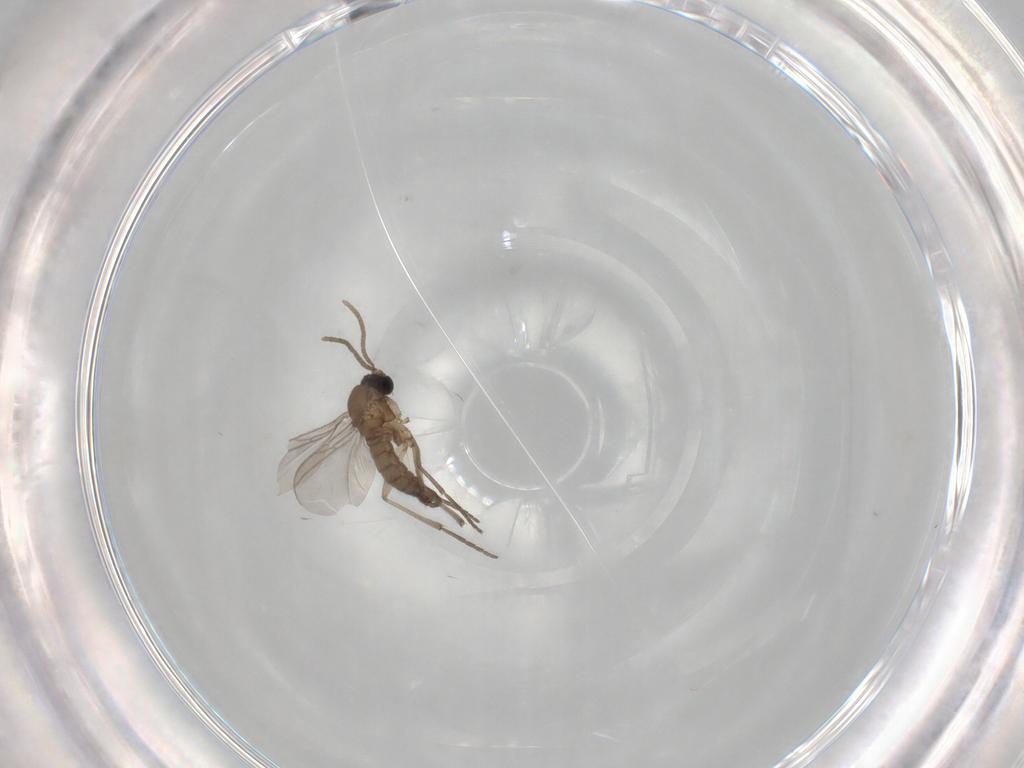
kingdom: Animalia
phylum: Arthropoda
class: Insecta
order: Diptera
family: Sciaridae
